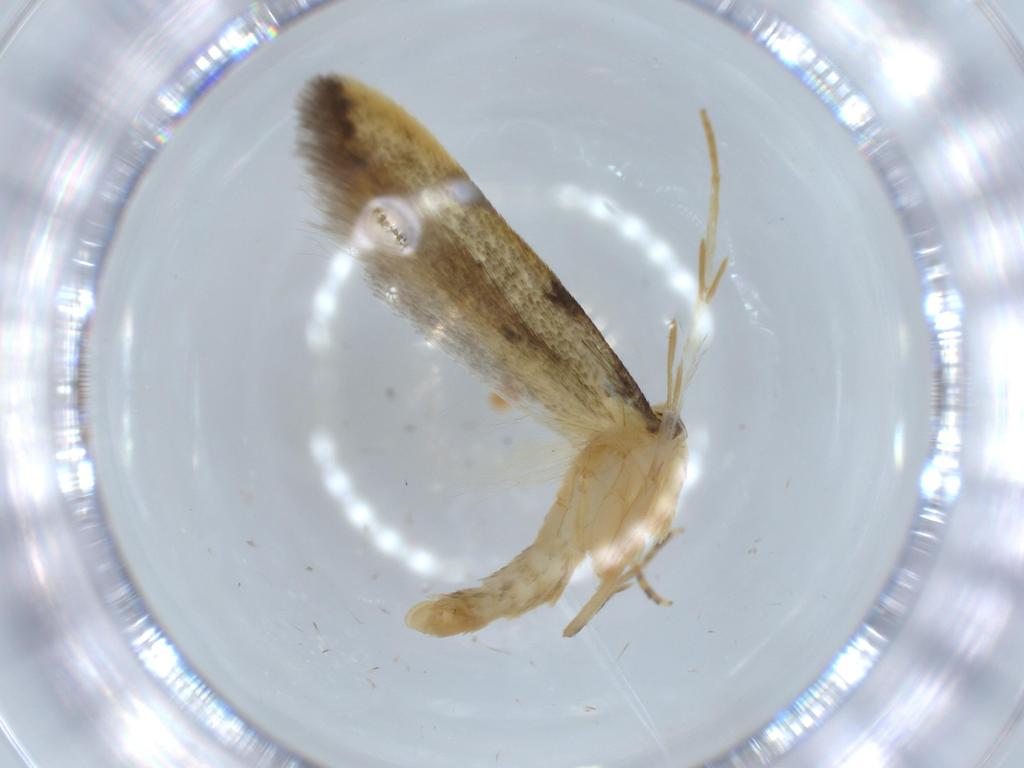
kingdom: Animalia
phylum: Arthropoda
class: Insecta
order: Lepidoptera
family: Autostichidae
